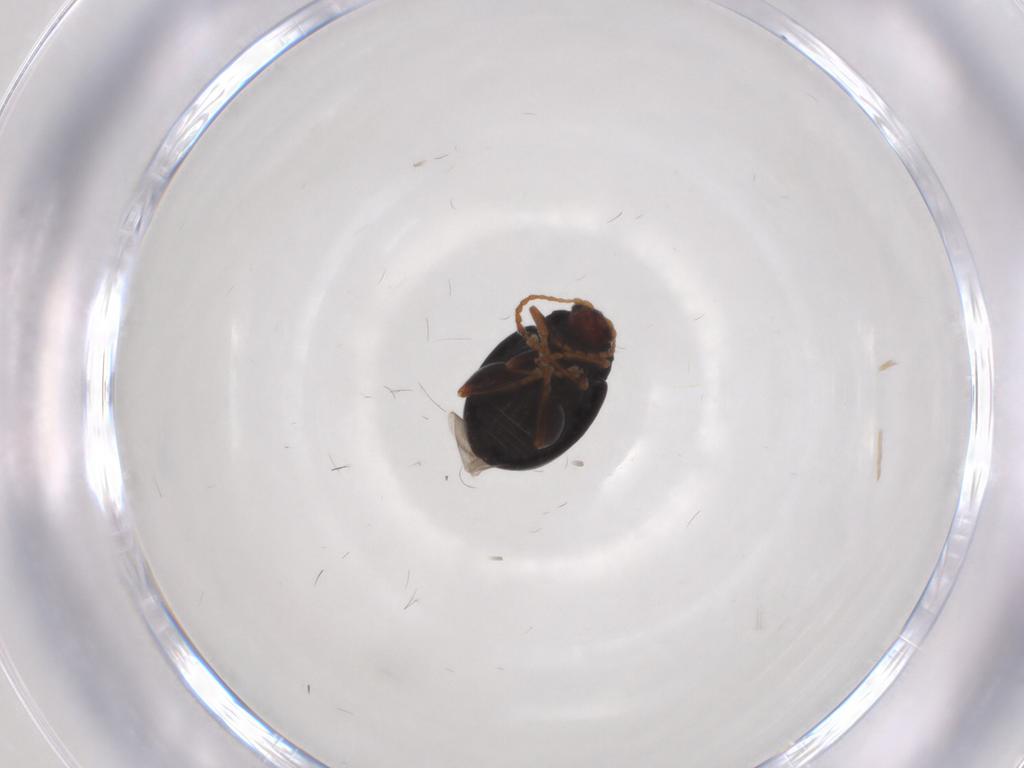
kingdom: Animalia
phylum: Arthropoda
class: Insecta
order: Coleoptera
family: Chrysomelidae
